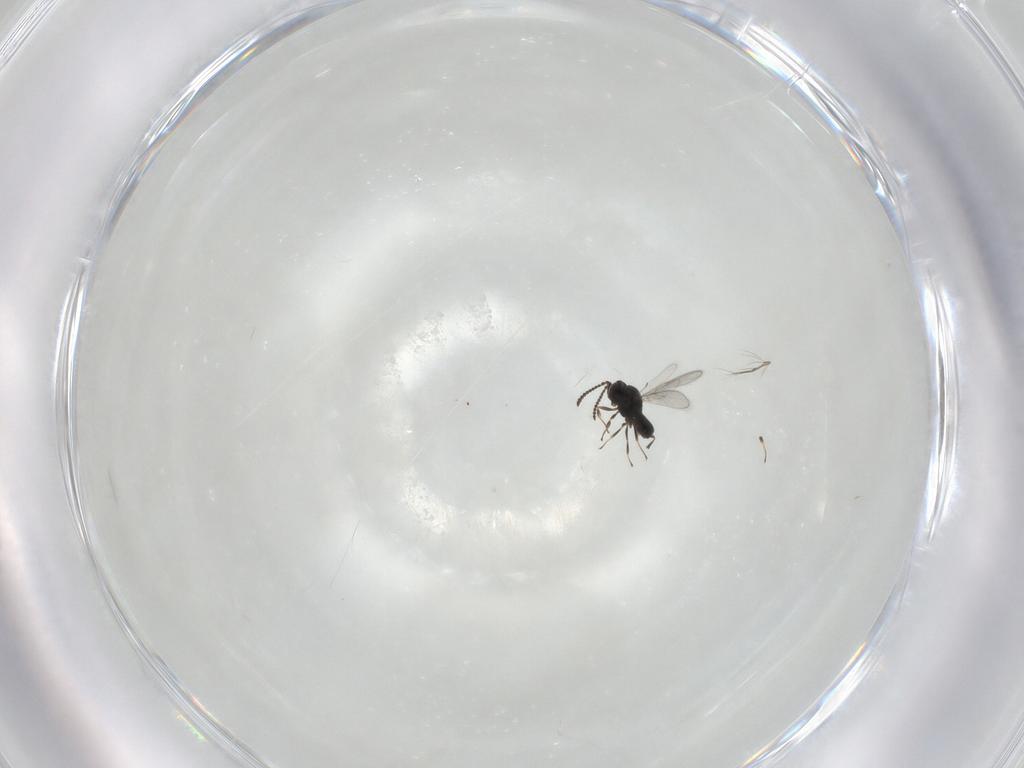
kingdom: Animalia
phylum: Arthropoda
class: Insecta
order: Hymenoptera
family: Scelionidae
